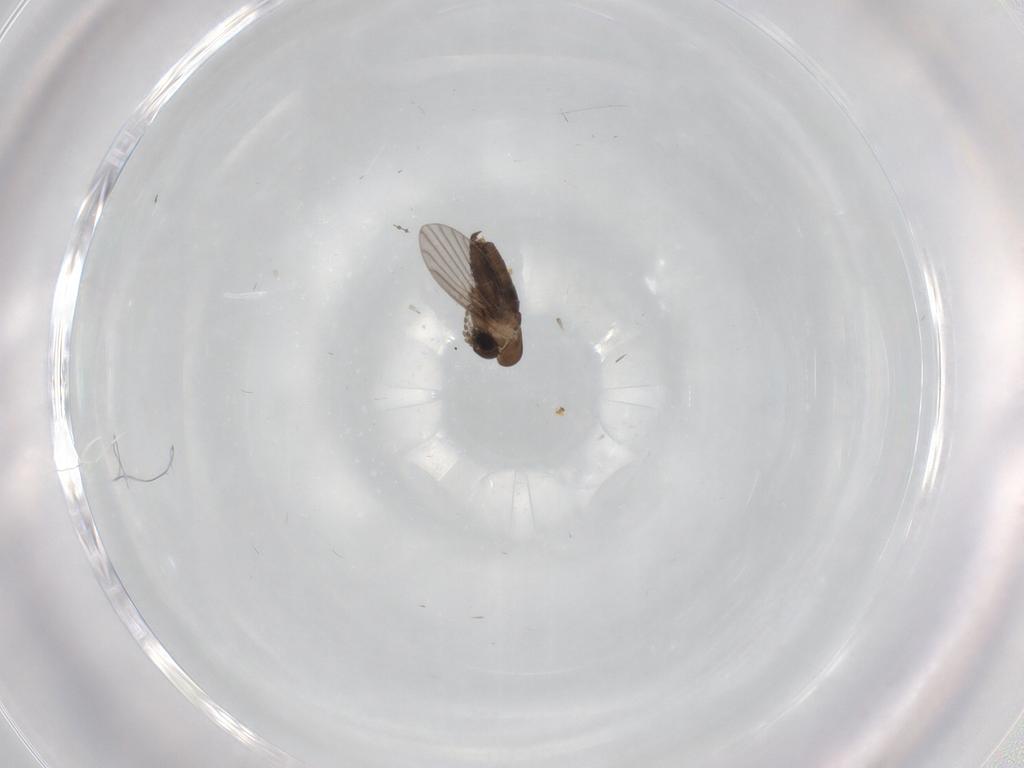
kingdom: Animalia
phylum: Arthropoda
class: Insecta
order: Diptera
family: Cecidomyiidae
